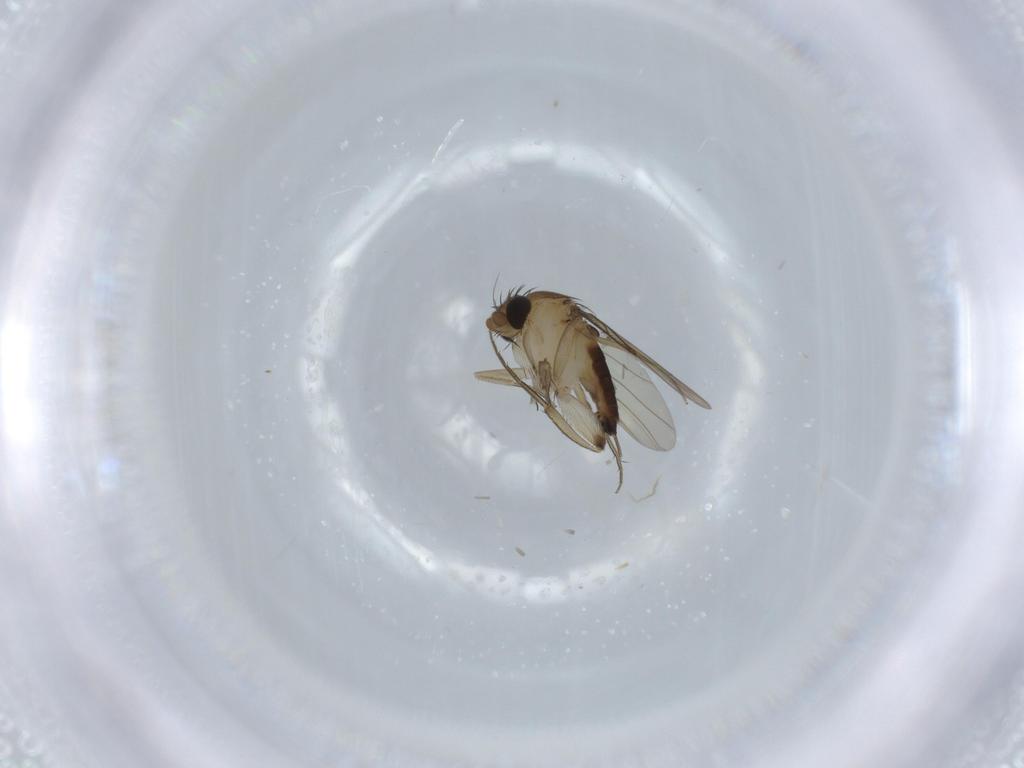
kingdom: Animalia
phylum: Arthropoda
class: Insecta
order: Diptera
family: Phoridae
